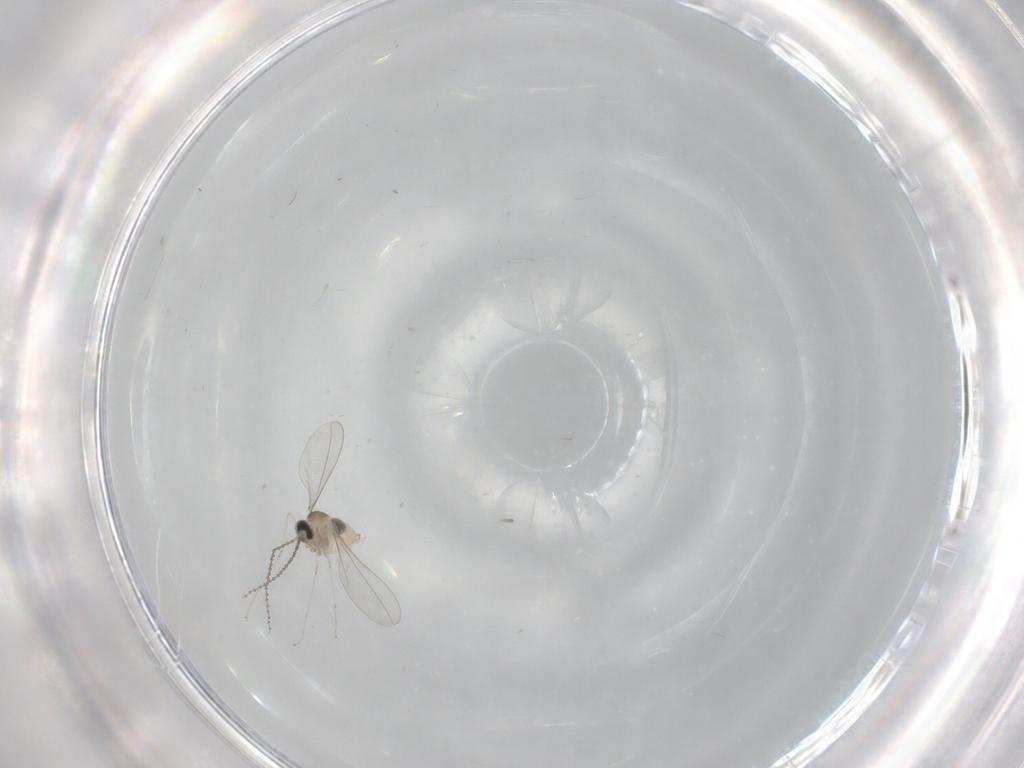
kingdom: Animalia
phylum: Arthropoda
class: Insecta
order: Diptera
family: Cecidomyiidae
